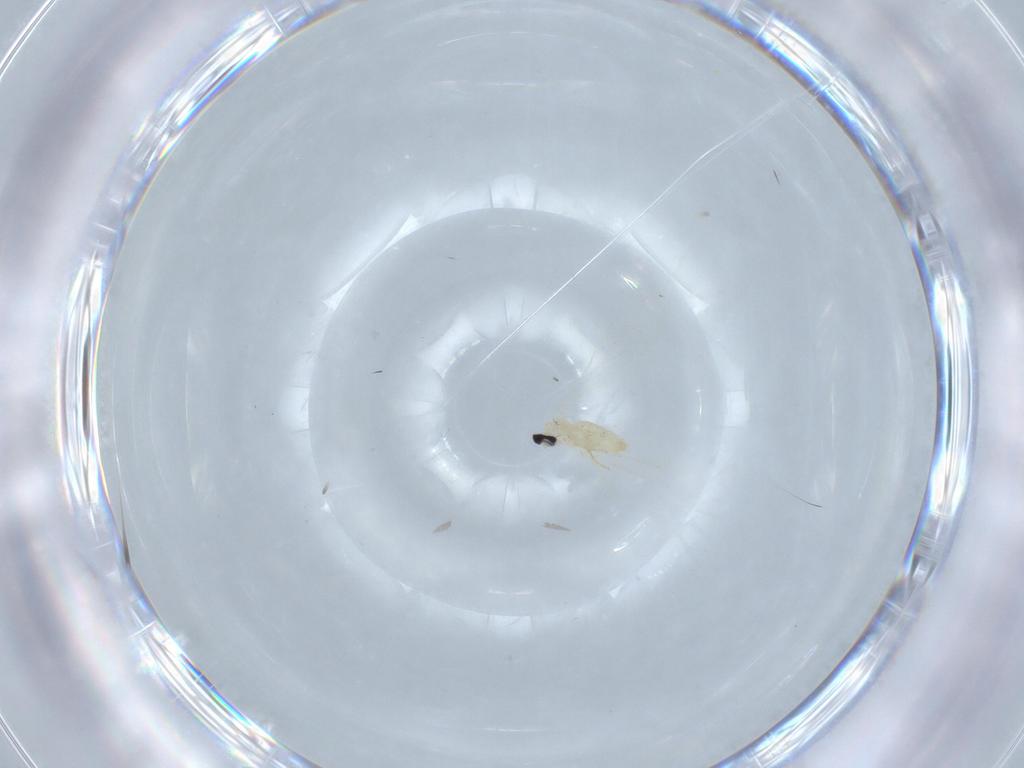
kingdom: Animalia
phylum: Arthropoda
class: Insecta
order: Diptera
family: Cecidomyiidae
